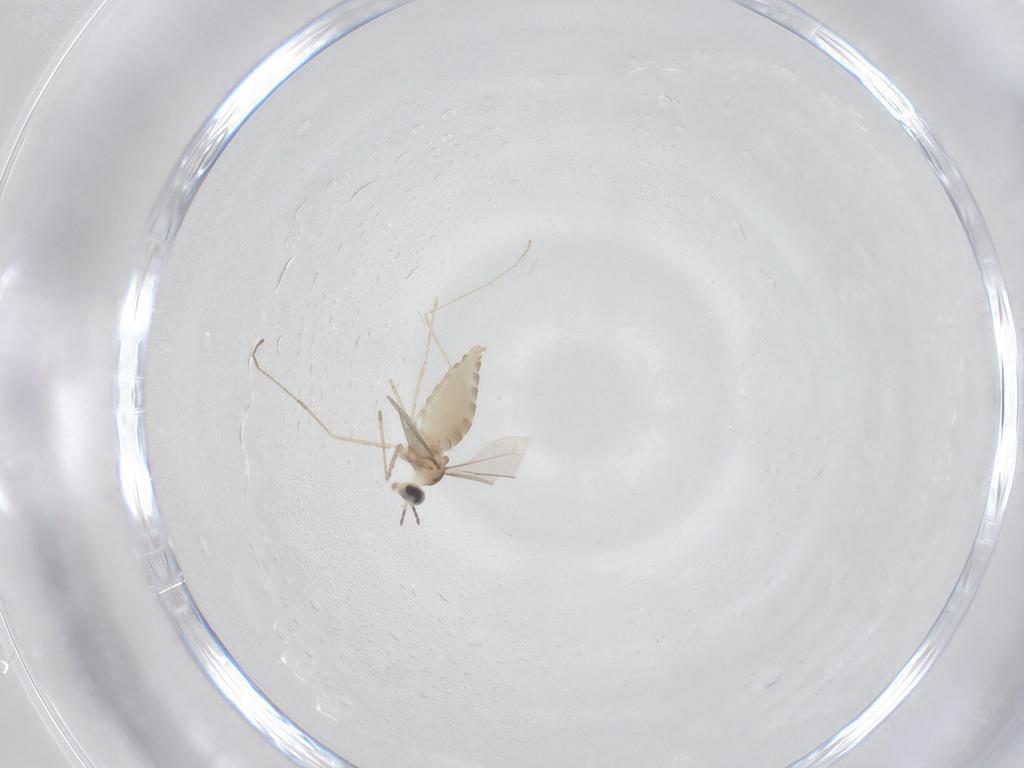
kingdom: Animalia
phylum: Arthropoda
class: Insecta
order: Diptera
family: Cecidomyiidae
